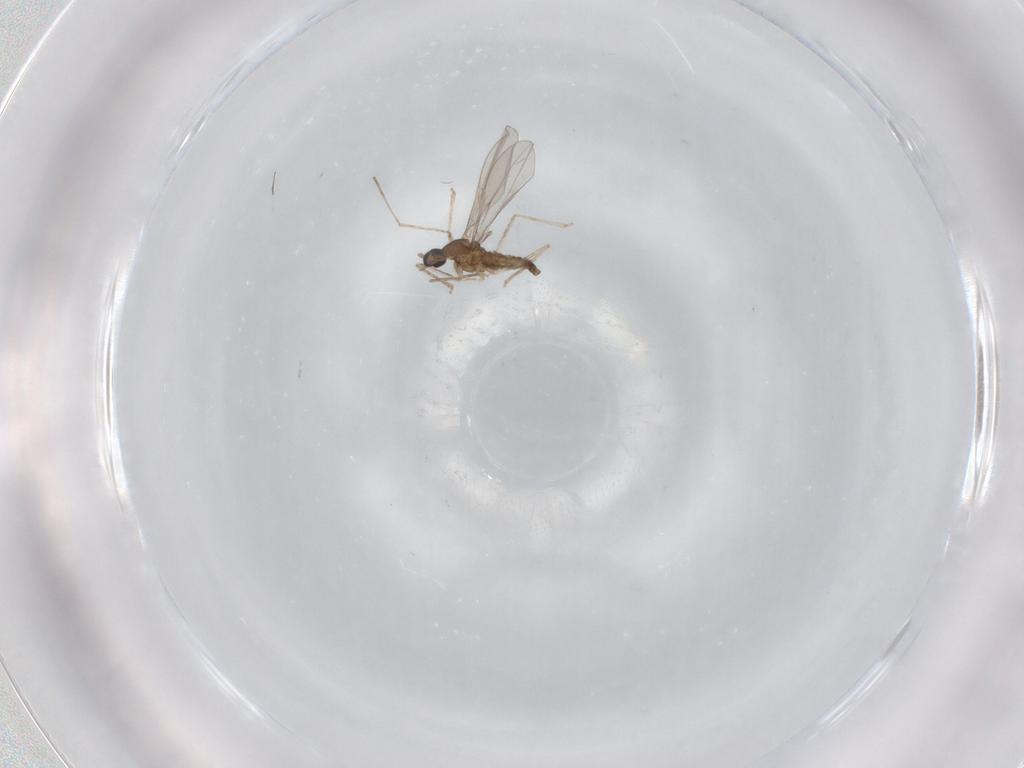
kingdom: Animalia
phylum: Arthropoda
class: Insecta
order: Diptera
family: Cecidomyiidae
